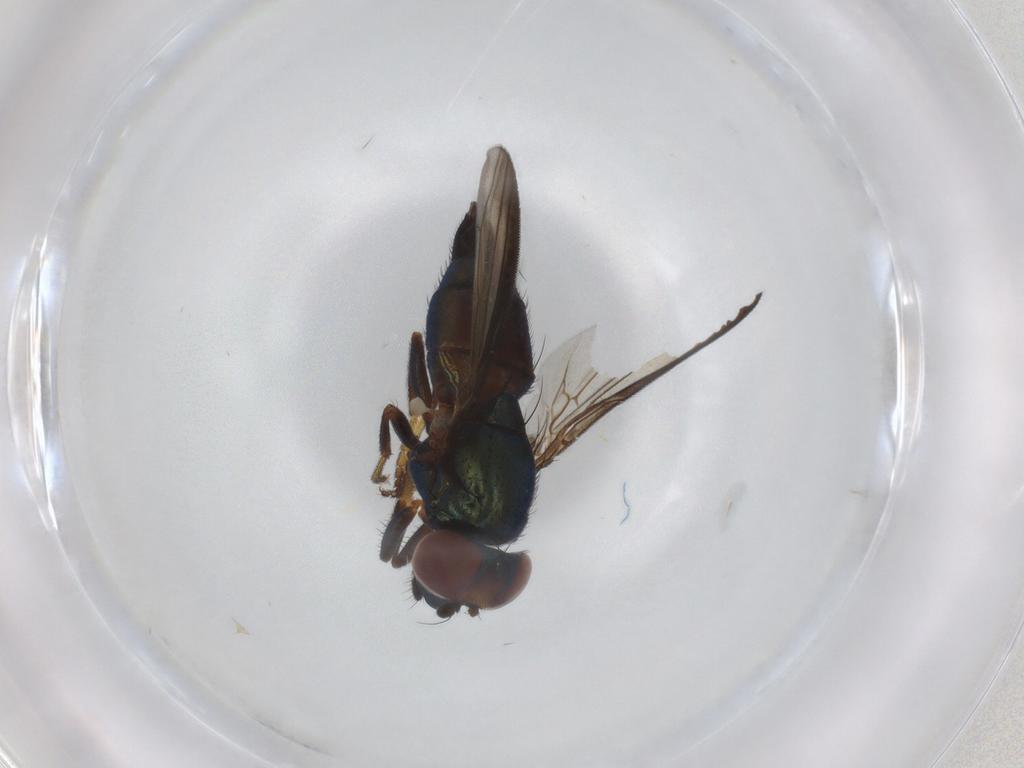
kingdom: Animalia
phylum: Arthropoda
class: Insecta
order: Diptera
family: Ulidiidae
